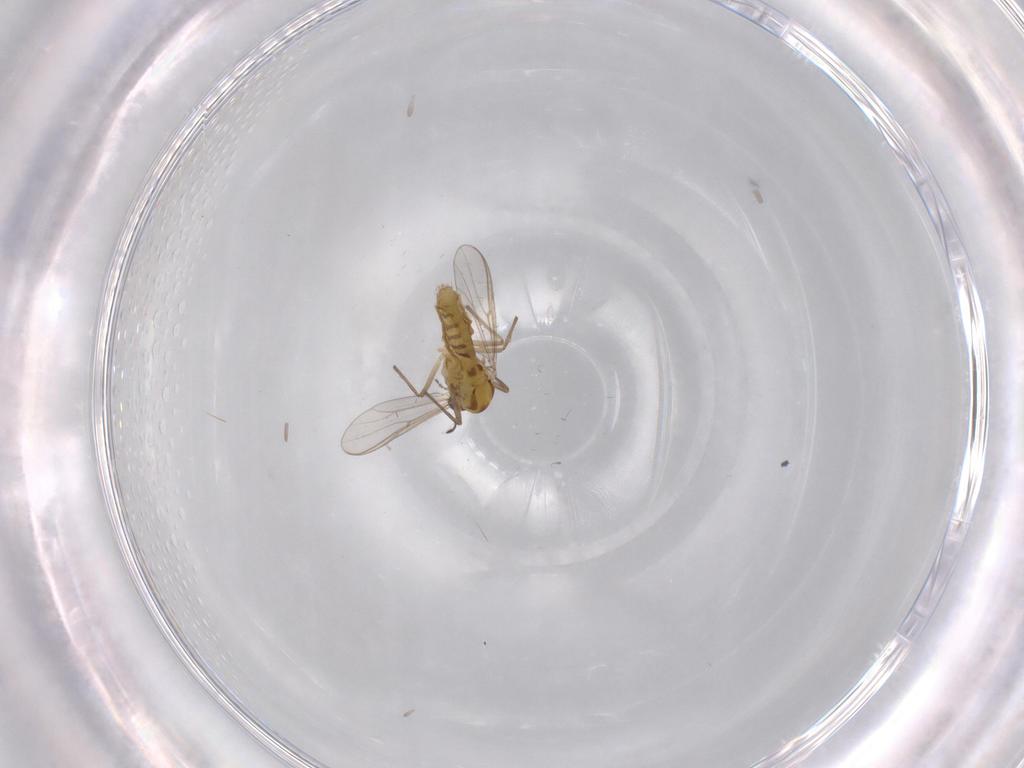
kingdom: Animalia
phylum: Arthropoda
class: Insecta
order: Diptera
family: Chironomidae
